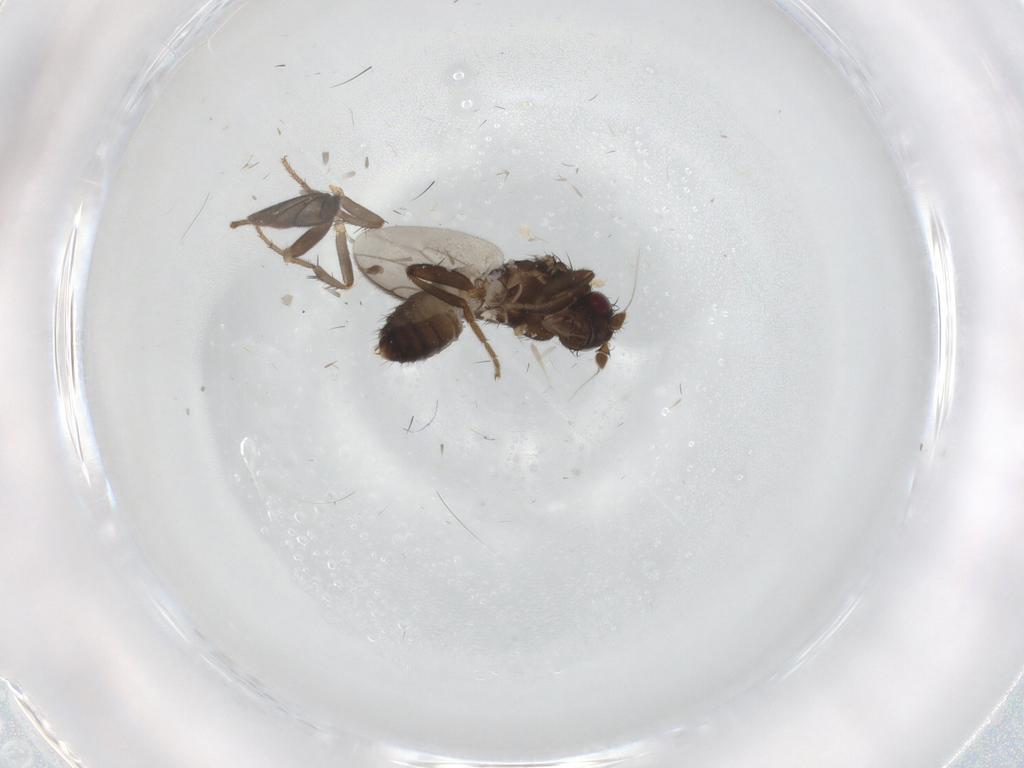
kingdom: Animalia
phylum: Arthropoda
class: Insecta
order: Diptera
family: Sphaeroceridae
